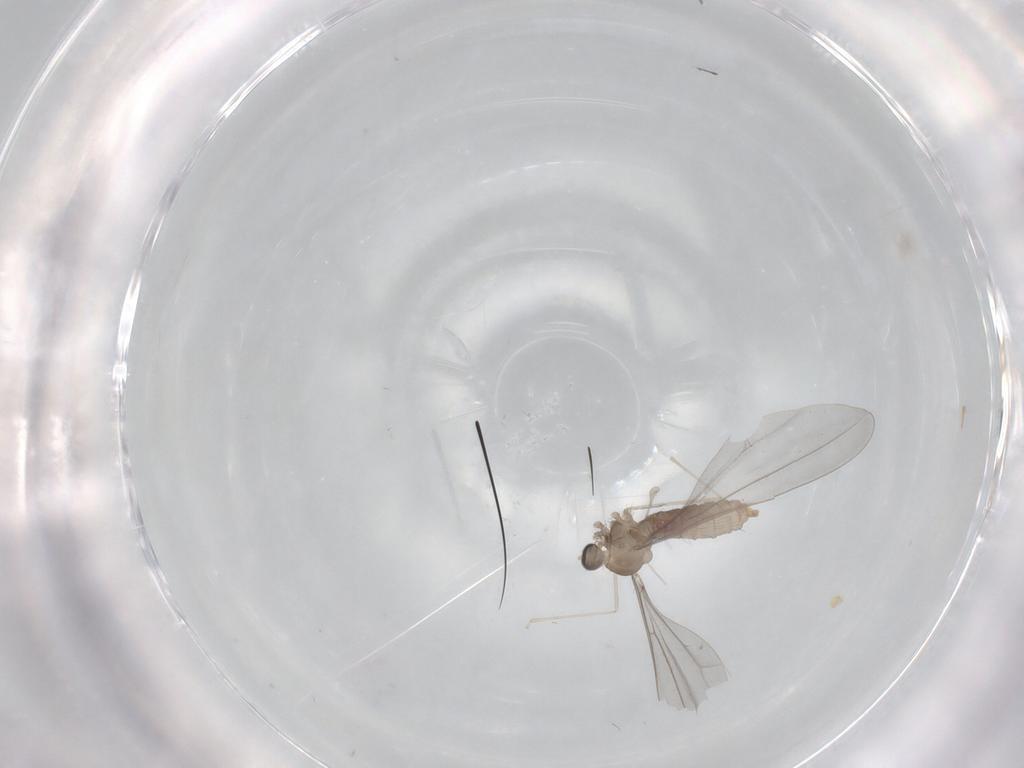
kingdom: Animalia
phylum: Arthropoda
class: Insecta
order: Diptera
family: Cecidomyiidae
